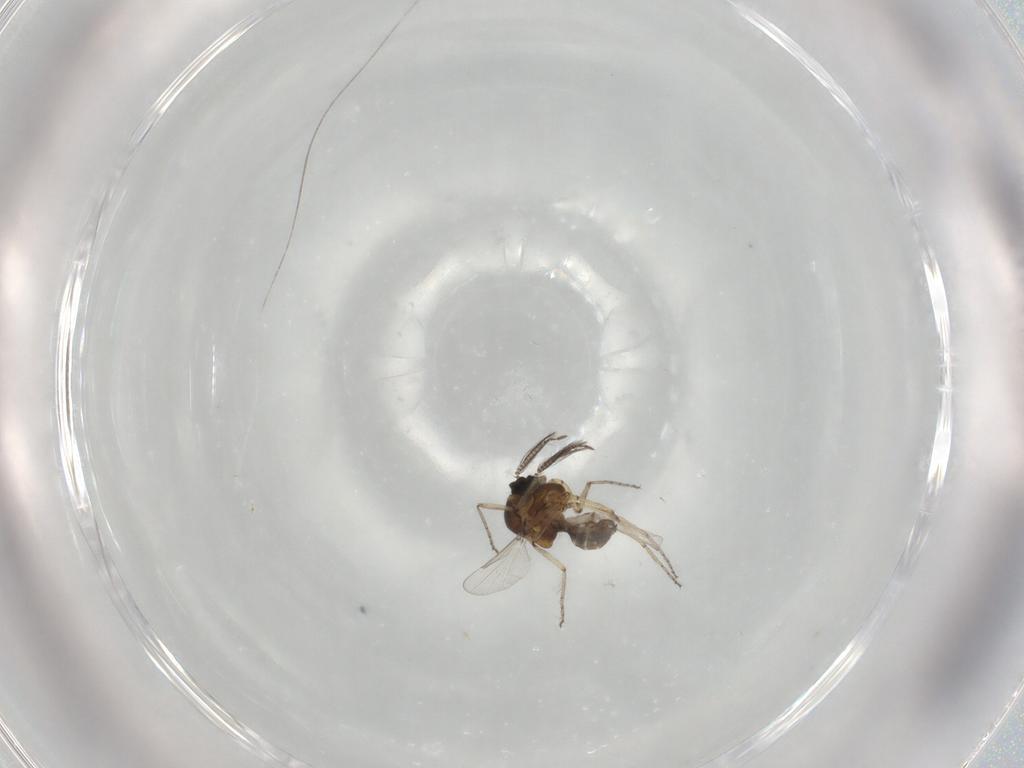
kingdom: Animalia
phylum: Arthropoda
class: Insecta
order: Diptera
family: Ceratopogonidae
